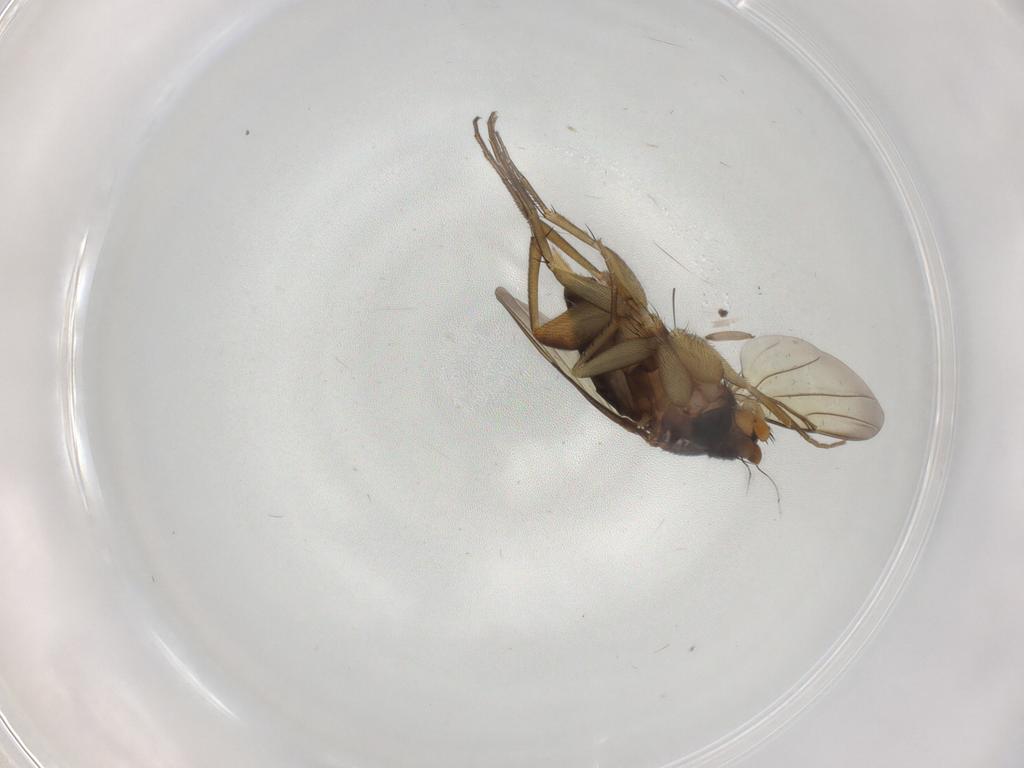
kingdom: Animalia
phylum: Arthropoda
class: Insecta
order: Diptera
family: Phoridae
